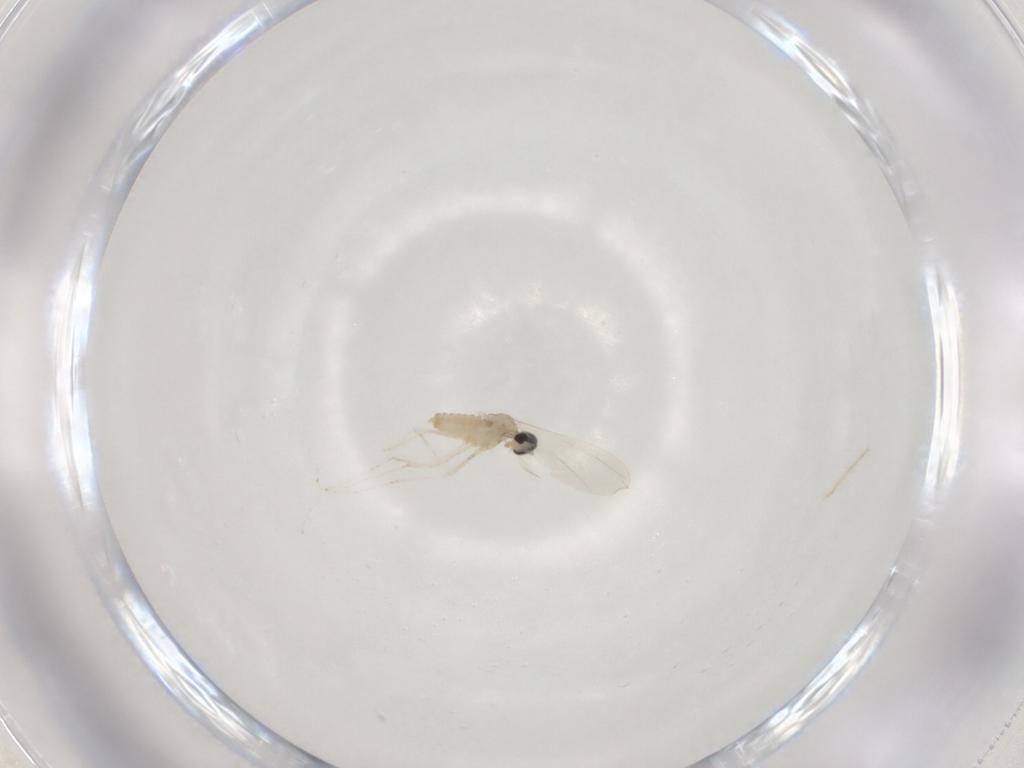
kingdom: Animalia
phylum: Arthropoda
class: Insecta
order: Diptera
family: Cecidomyiidae
